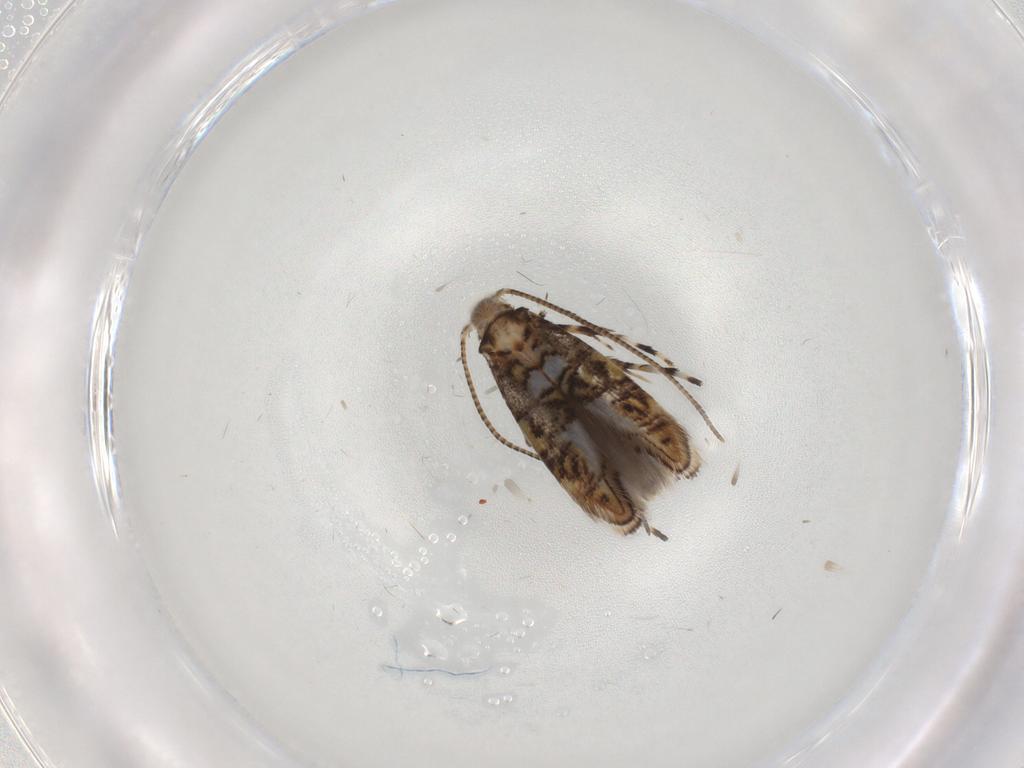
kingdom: Animalia
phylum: Arthropoda
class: Insecta
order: Lepidoptera
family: Gracillariidae
